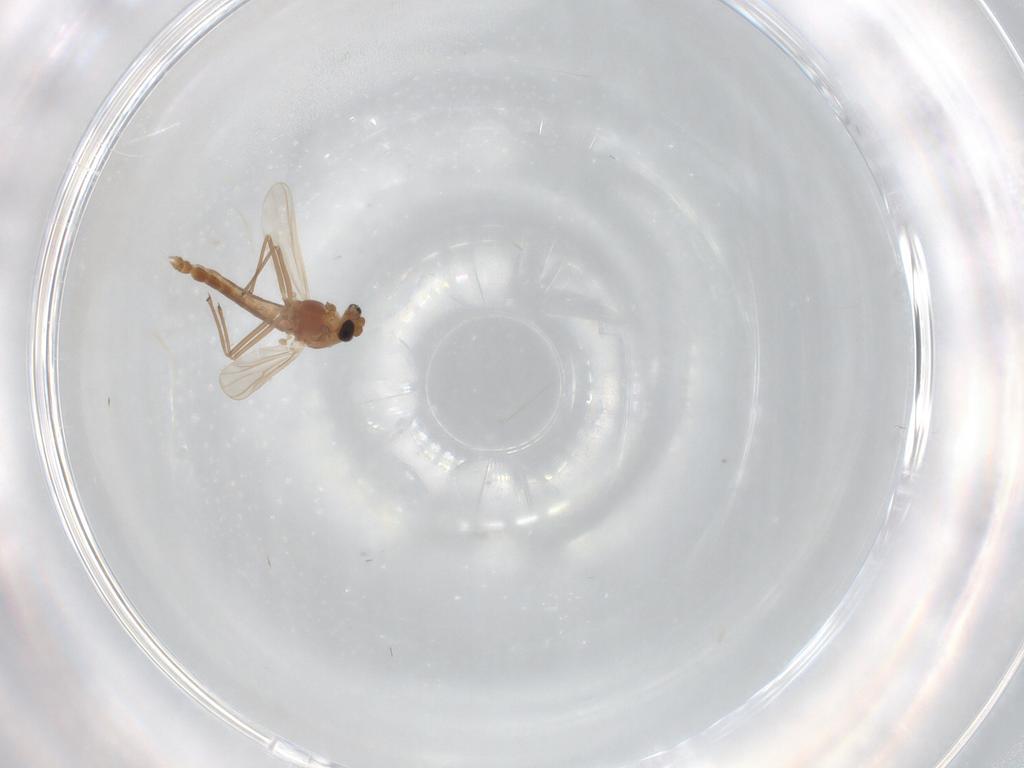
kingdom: Animalia
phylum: Arthropoda
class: Insecta
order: Diptera
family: Chironomidae
